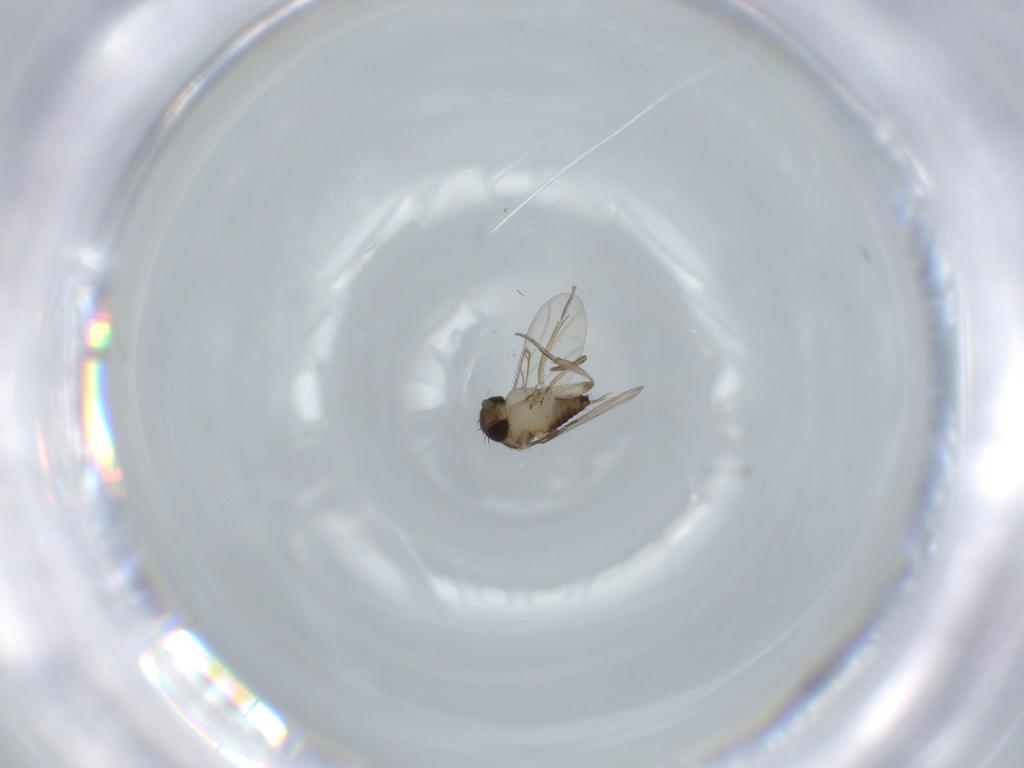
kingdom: Animalia
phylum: Arthropoda
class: Insecta
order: Diptera
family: Phoridae
